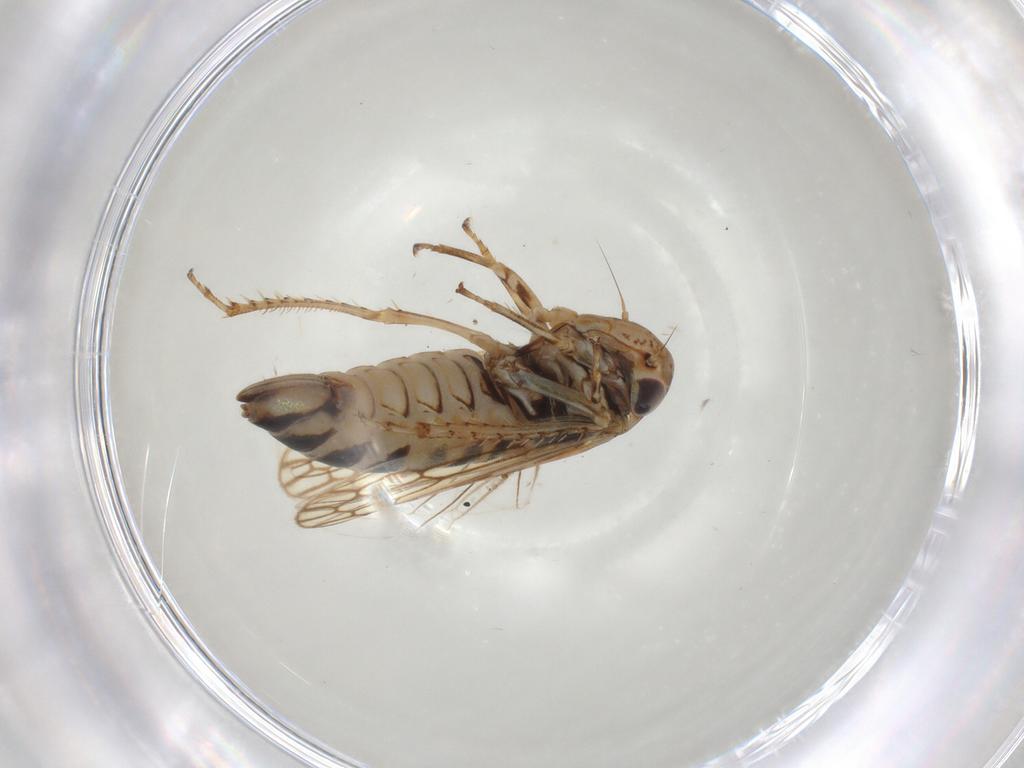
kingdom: Animalia
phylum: Arthropoda
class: Insecta
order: Hemiptera
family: Cicadellidae
